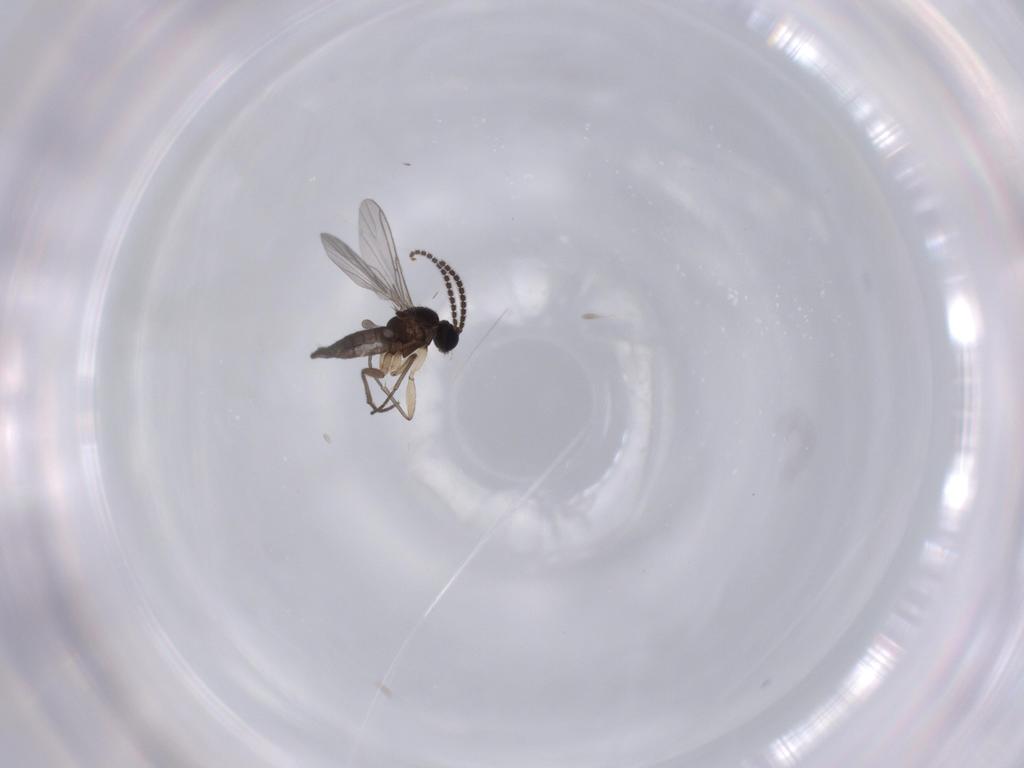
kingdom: Animalia
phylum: Arthropoda
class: Insecta
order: Diptera
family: Sciaridae
